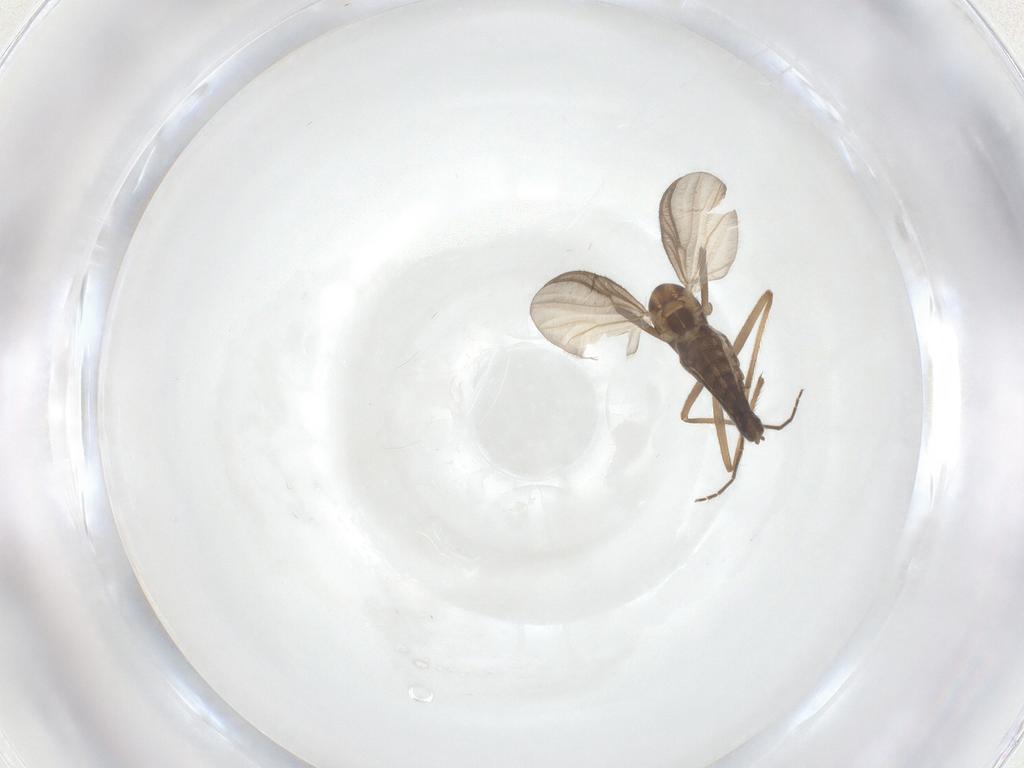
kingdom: Animalia
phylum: Arthropoda
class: Insecta
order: Diptera
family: Chironomidae
